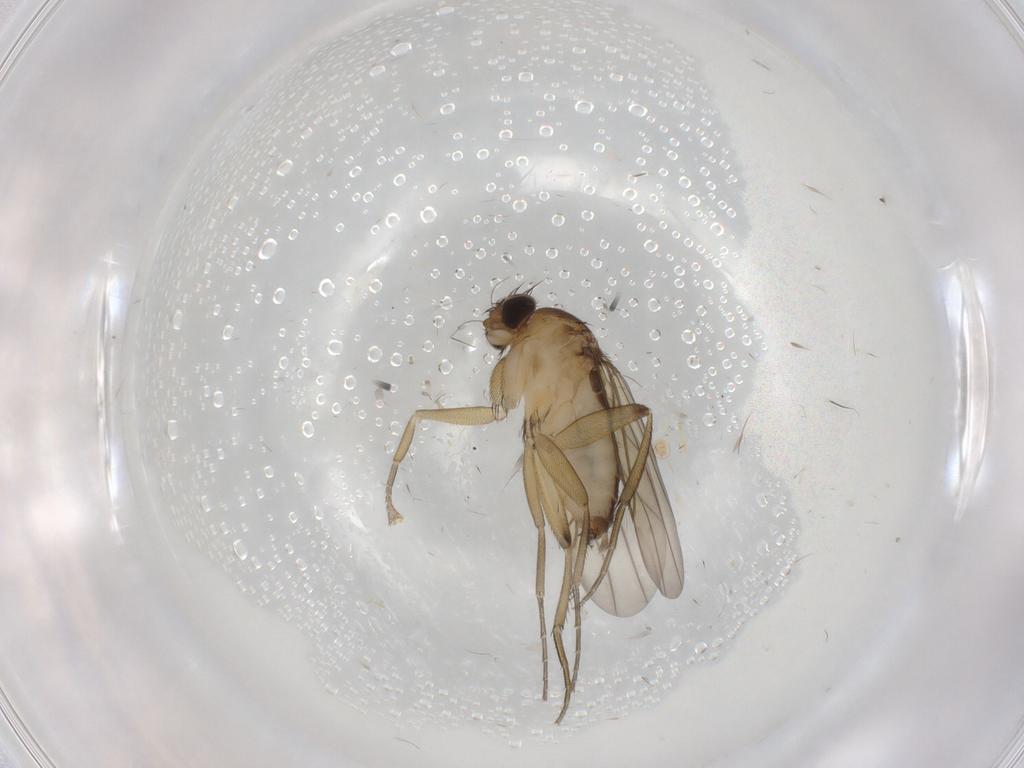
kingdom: Animalia
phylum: Arthropoda
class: Insecta
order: Diptera
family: Phoridae
